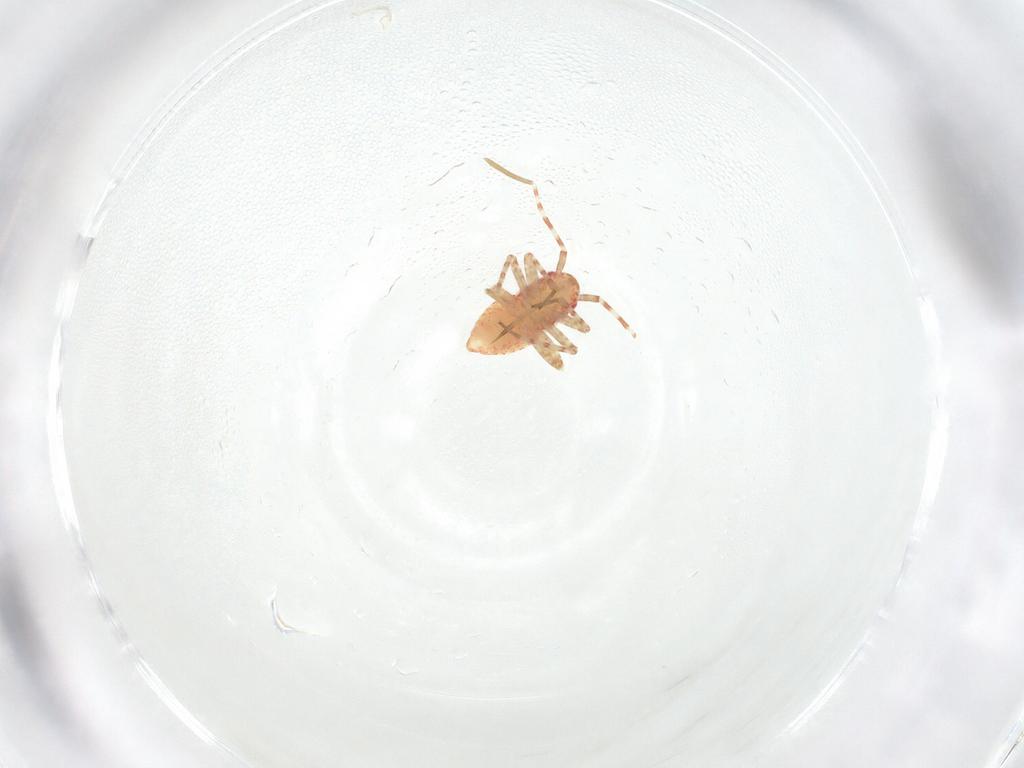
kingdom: Animalia
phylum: Arthropoda
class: Insecta
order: Hemiptera
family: Miridae
